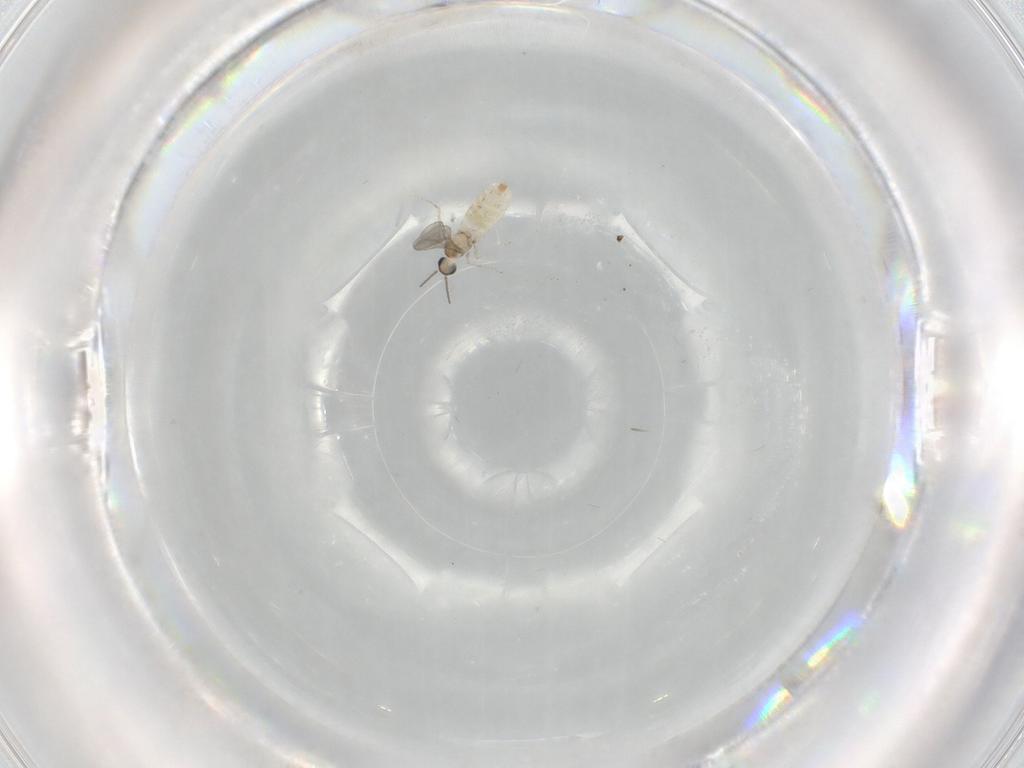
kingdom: Animalia
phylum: Arthropoda
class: Insecta
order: Diptera
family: Cecidomyiidae
